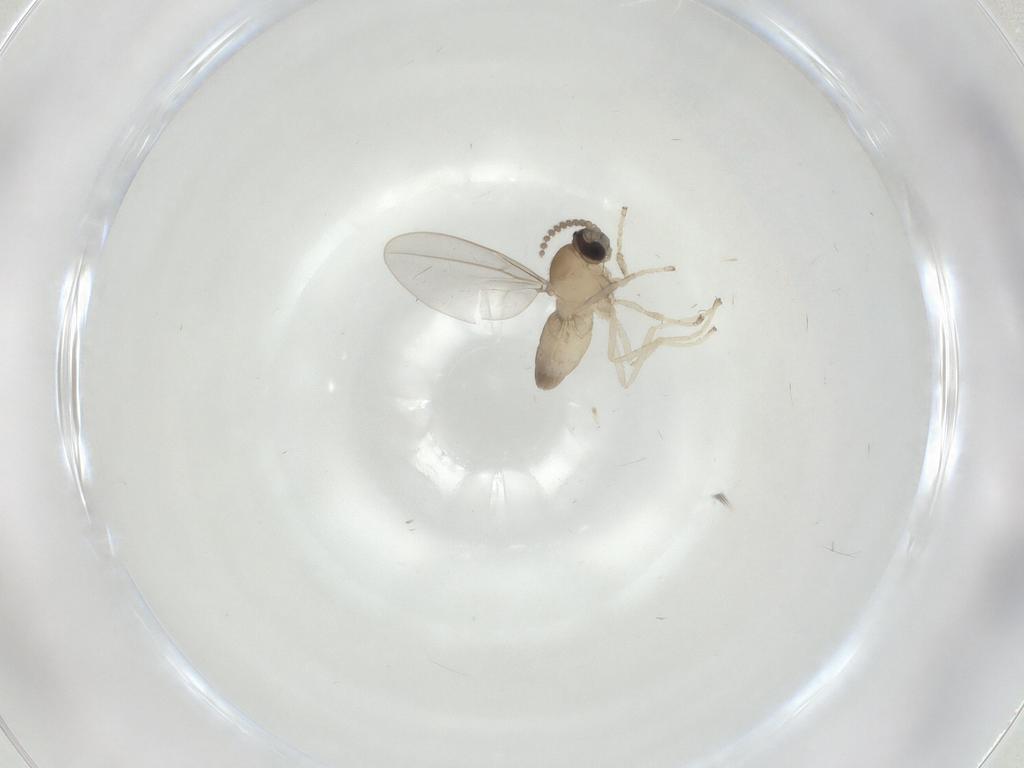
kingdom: Animalia
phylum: Arthropoda
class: Insecta
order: Diptera
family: Cecidomyiidae
